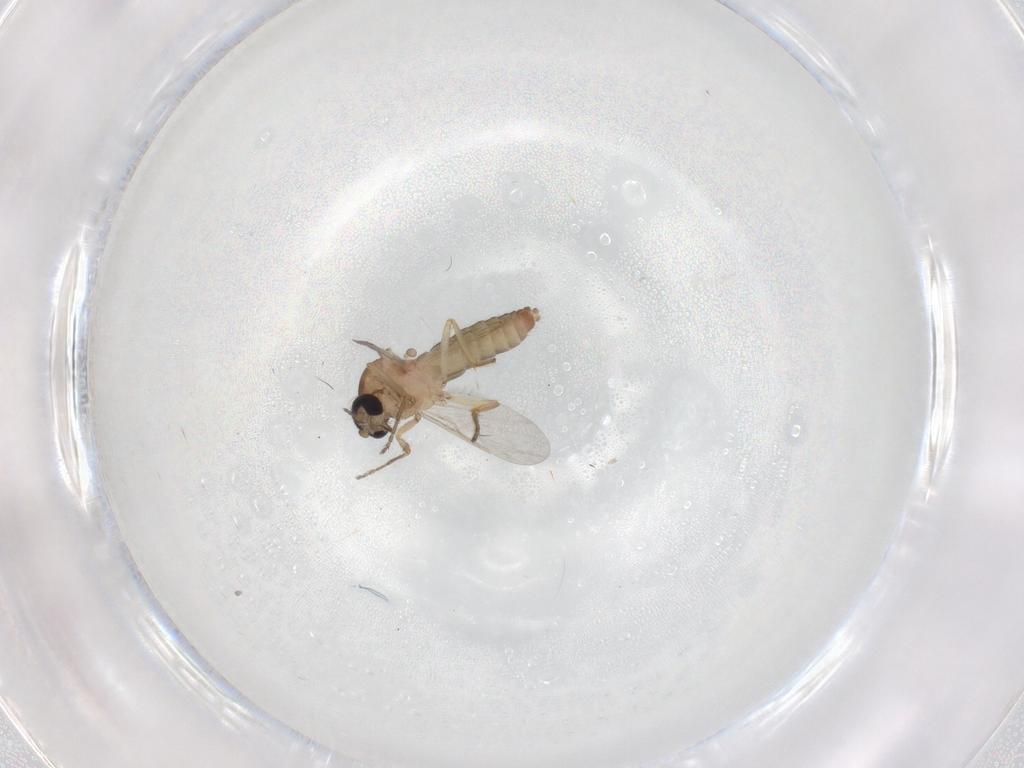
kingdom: Animalia
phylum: Arthropoda
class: Insecta
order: Diptera
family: Ceratopogonidae
